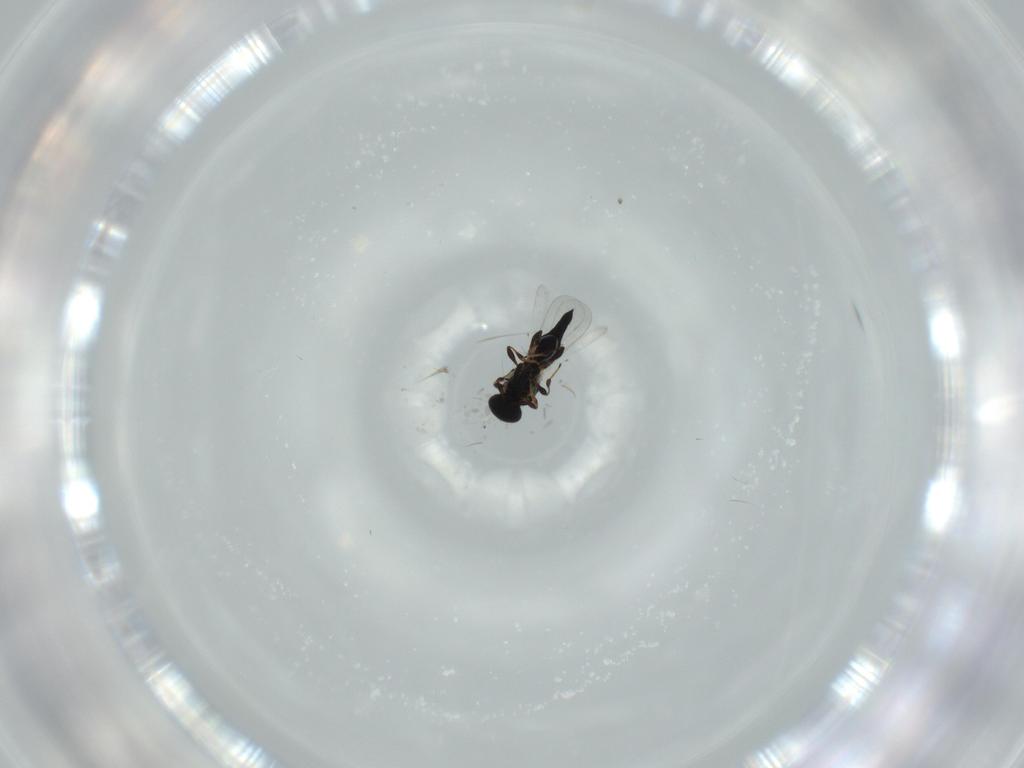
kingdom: Animalia
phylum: Arthropoda
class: Insecta
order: Hymenoptera
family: Platygastridae
